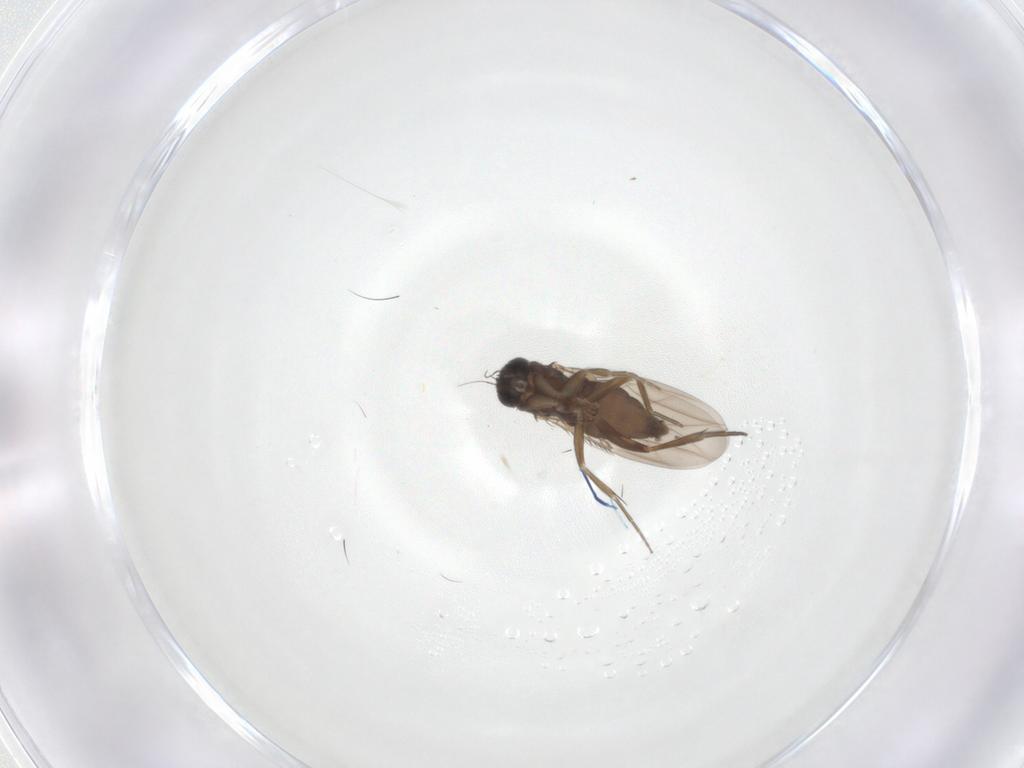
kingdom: Animalia
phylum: Arthropoda
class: Insecta
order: Diptera
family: Phoridae
